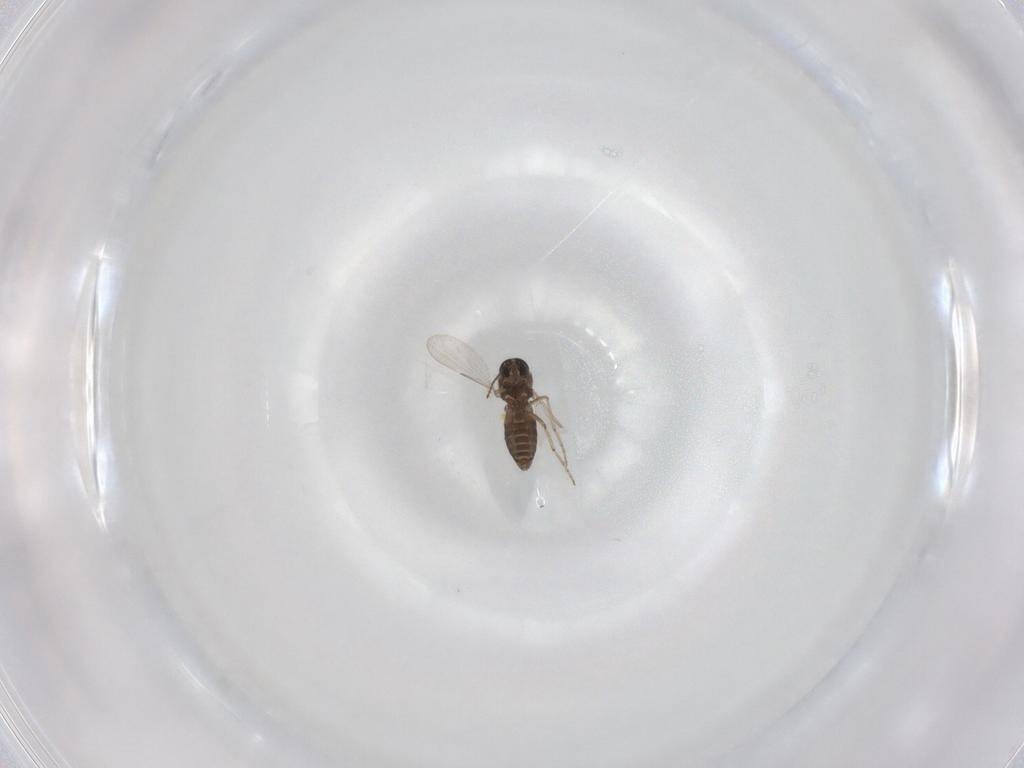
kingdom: Animalia
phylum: Arthropoda
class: Insecta
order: Diptera
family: Ceratopogonidae
